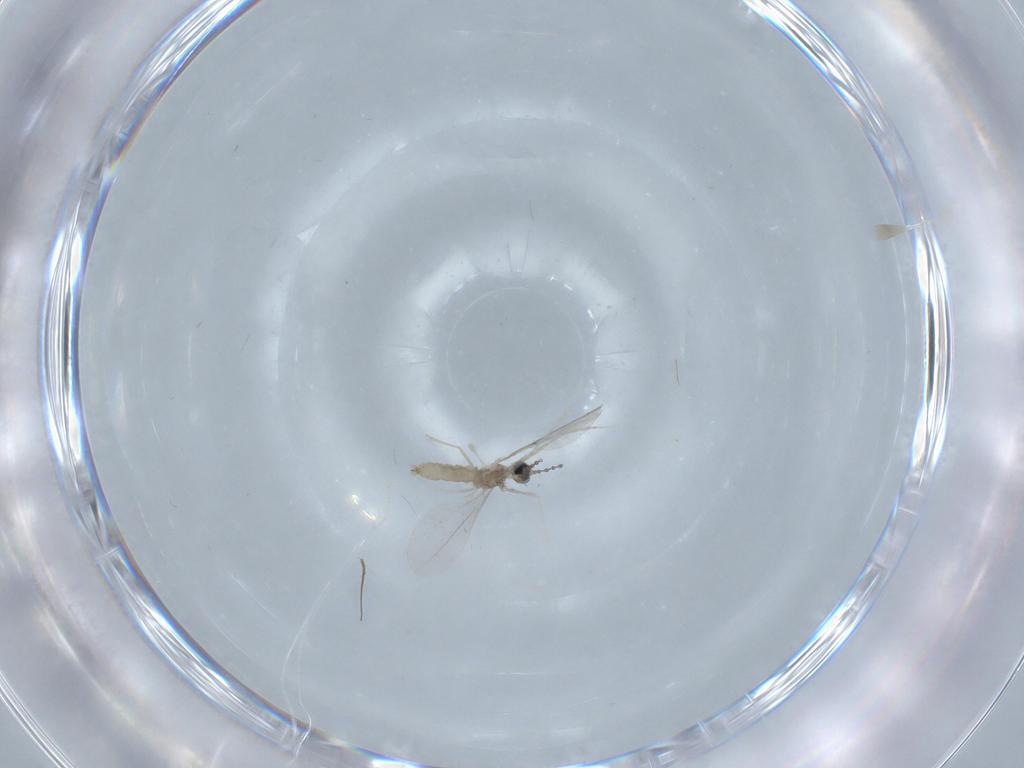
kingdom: Animalia
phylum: Arthropoda
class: Insecta
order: Diptera
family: Cecidomyiidae
